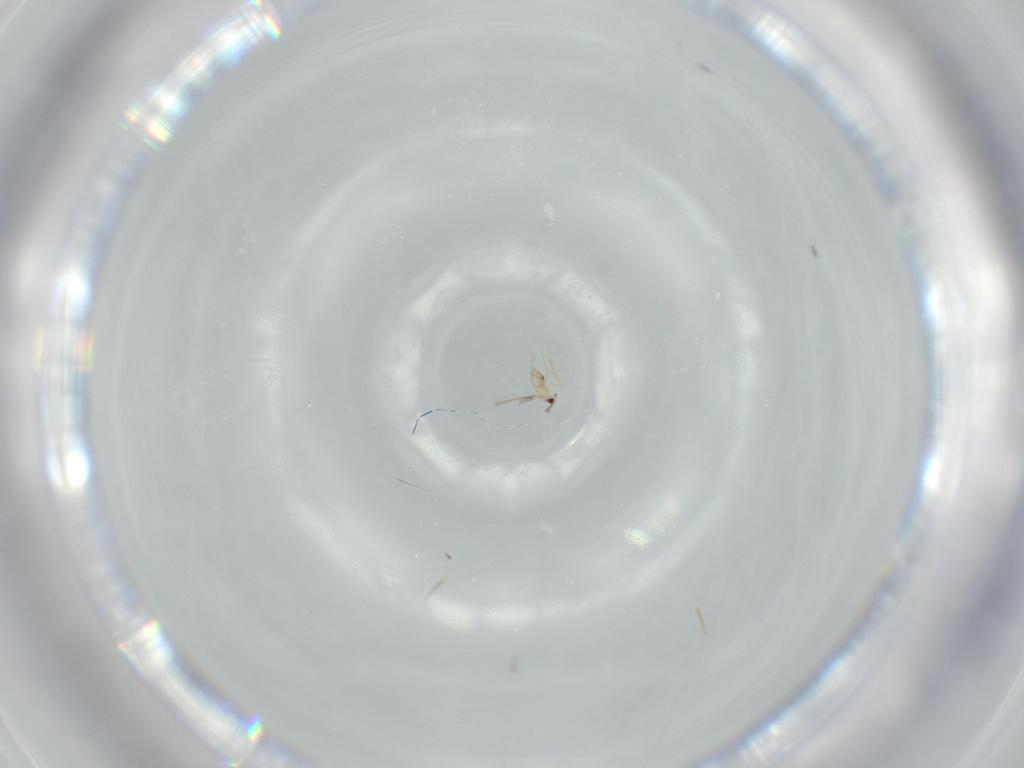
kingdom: Animalia
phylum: Arthropoda
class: Insecta
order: Hymenoptera
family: Mymaridae
